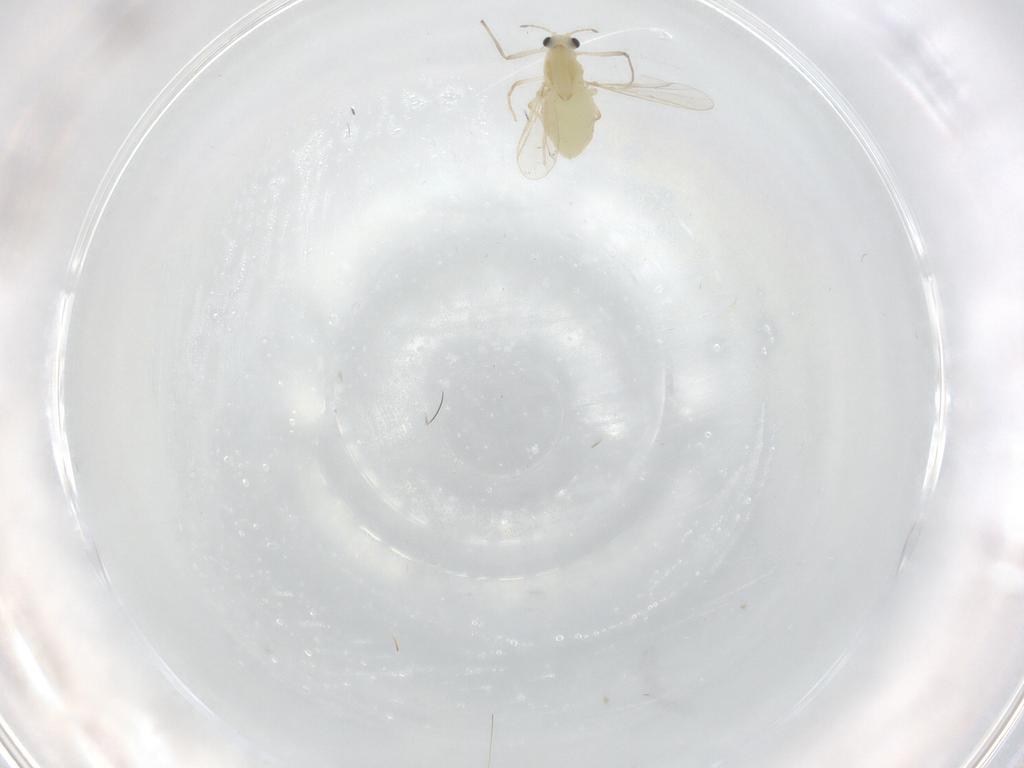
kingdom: Animalia
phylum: Arthropoda
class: Insecta
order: Diptera
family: Chironomidae
